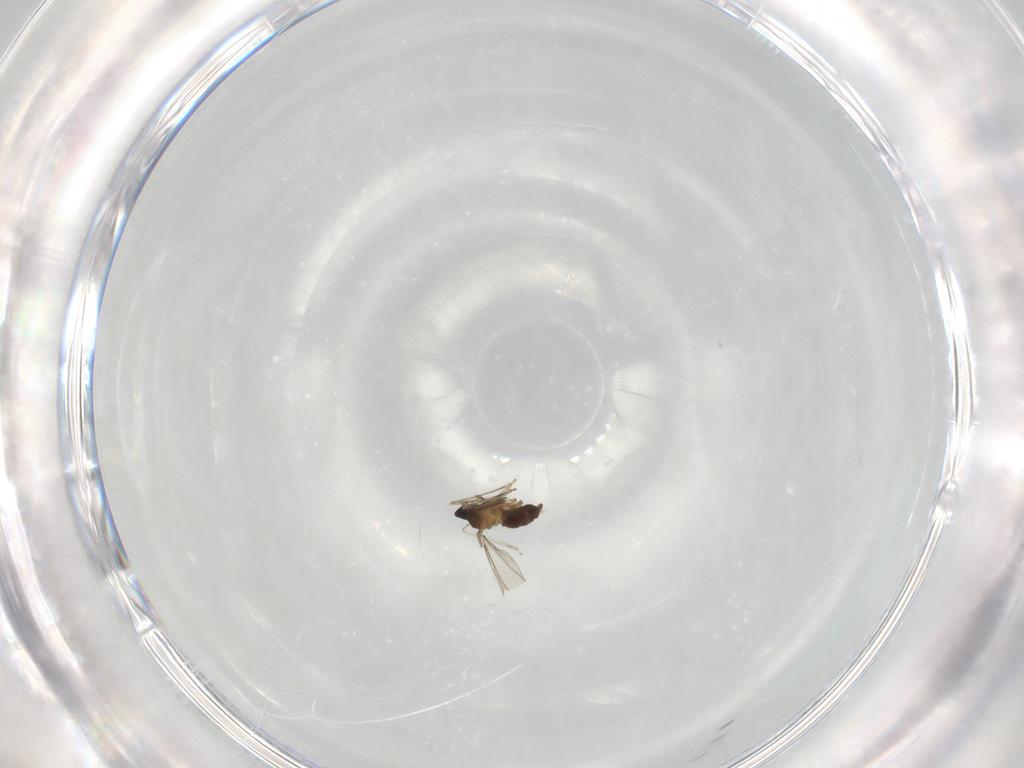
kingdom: Animalia
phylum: Arthropoda
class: Insecta
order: Diptera
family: Cecidomyiidae
